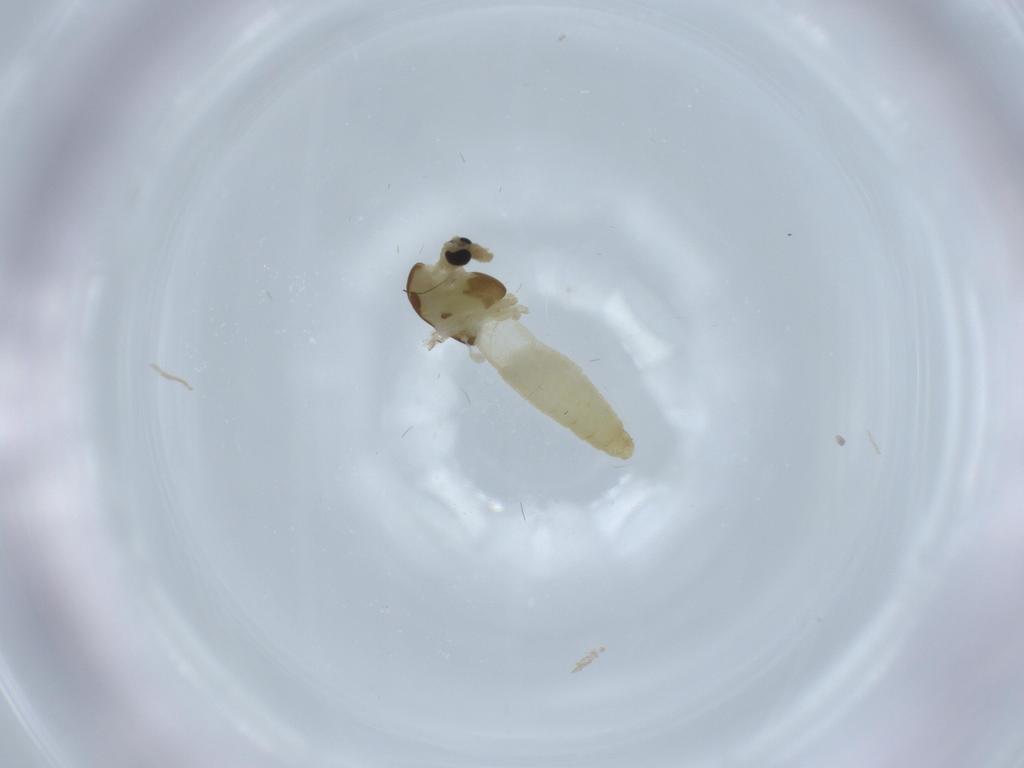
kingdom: Animalia
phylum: Arthropoda
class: Insecta
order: Diptera
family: Chironomidae
